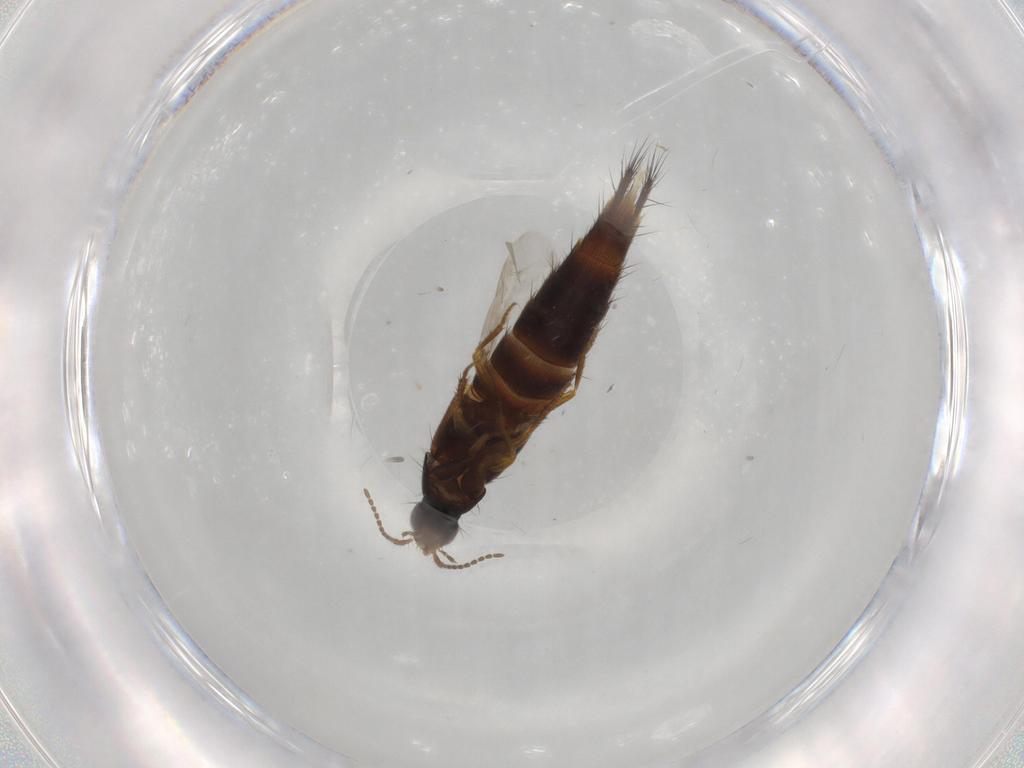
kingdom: Animalia
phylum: Arthropoda
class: Insecta
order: Coleoptera
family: Staphylinidae
